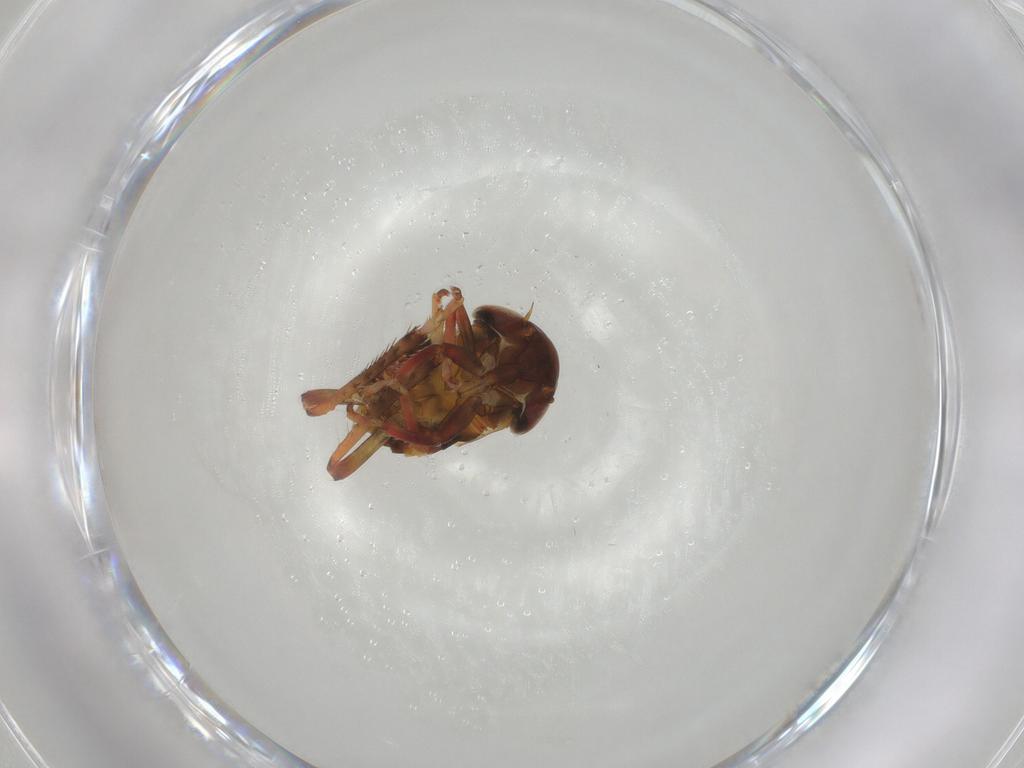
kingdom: Animalia
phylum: Arthropoda
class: Insecta
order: Hemiptera
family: Cicadellidae
